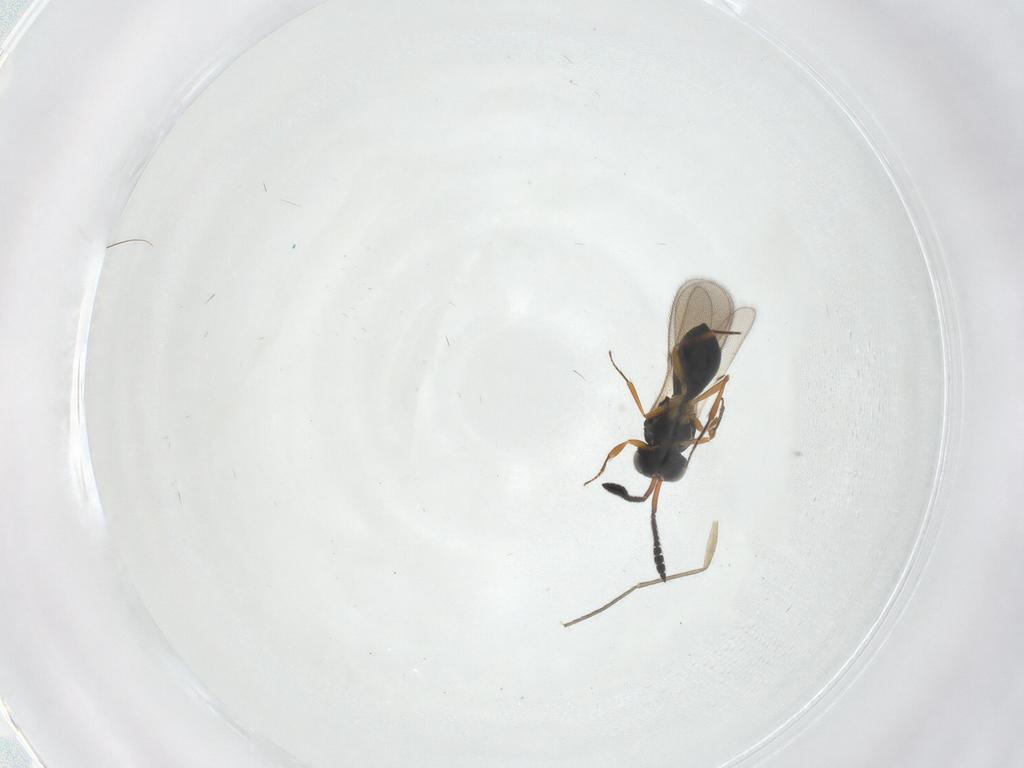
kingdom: Animalia
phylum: Arthropoda
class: Insecta
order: Hymenoptera
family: Scelionidae
